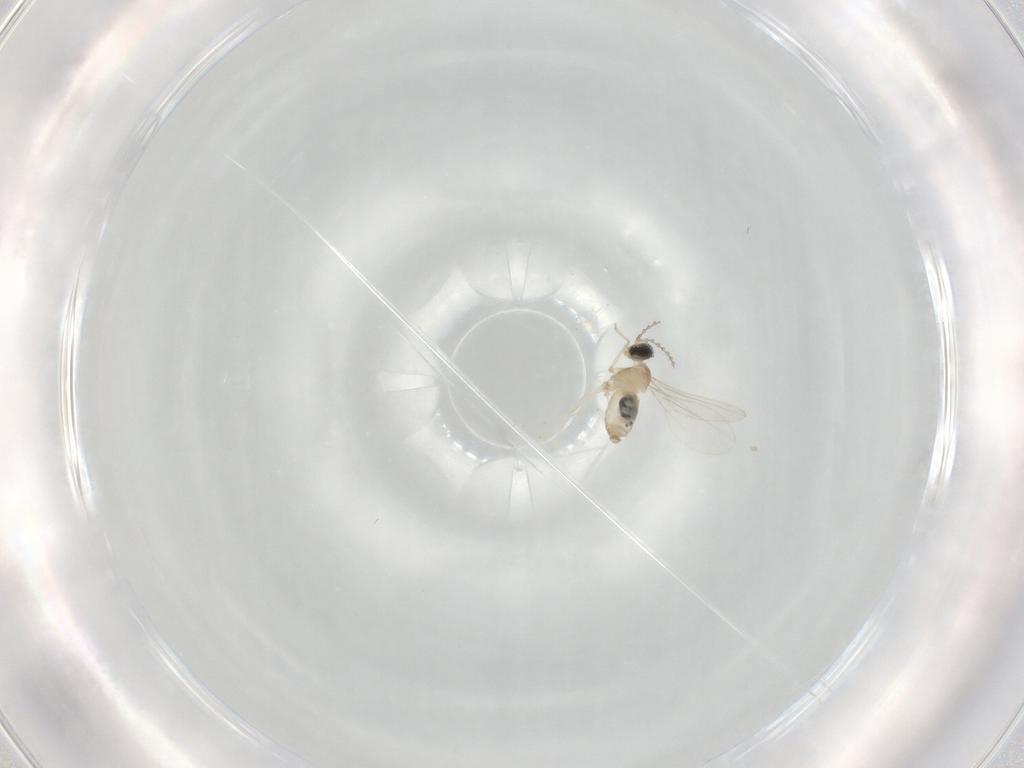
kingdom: Animalia
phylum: Arthropoda
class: Insecta
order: Diptera
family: Cecidomyiidae
